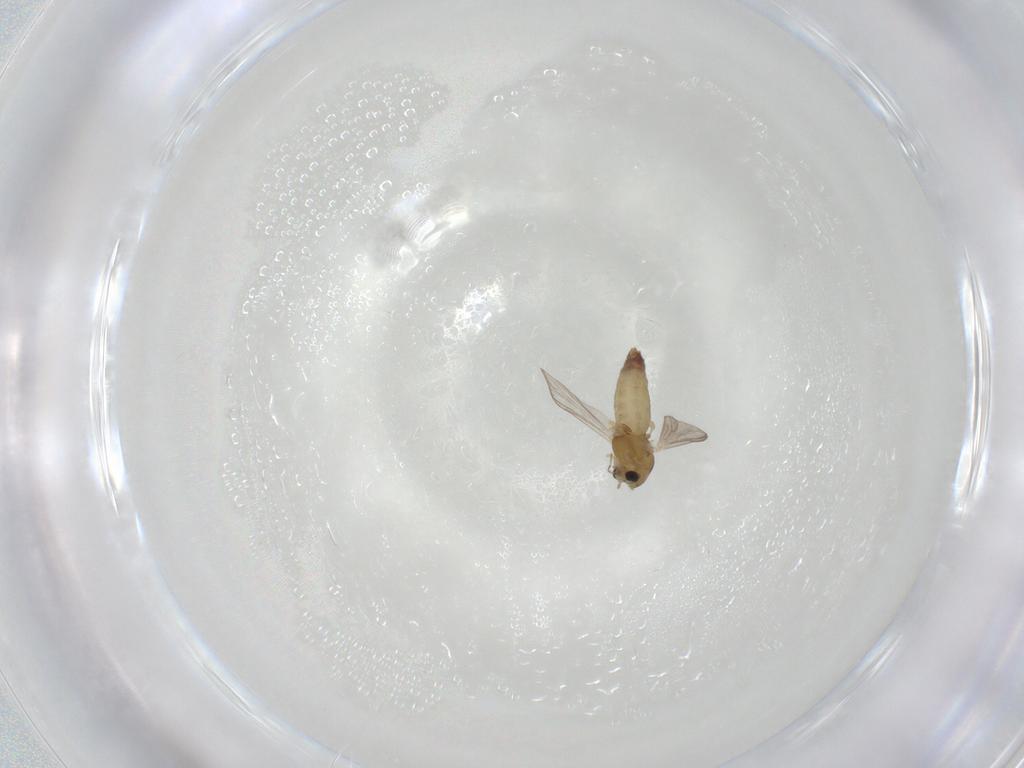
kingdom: Animalia
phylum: Arthropoda
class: Insecta
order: Diptera
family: Chironomidae
